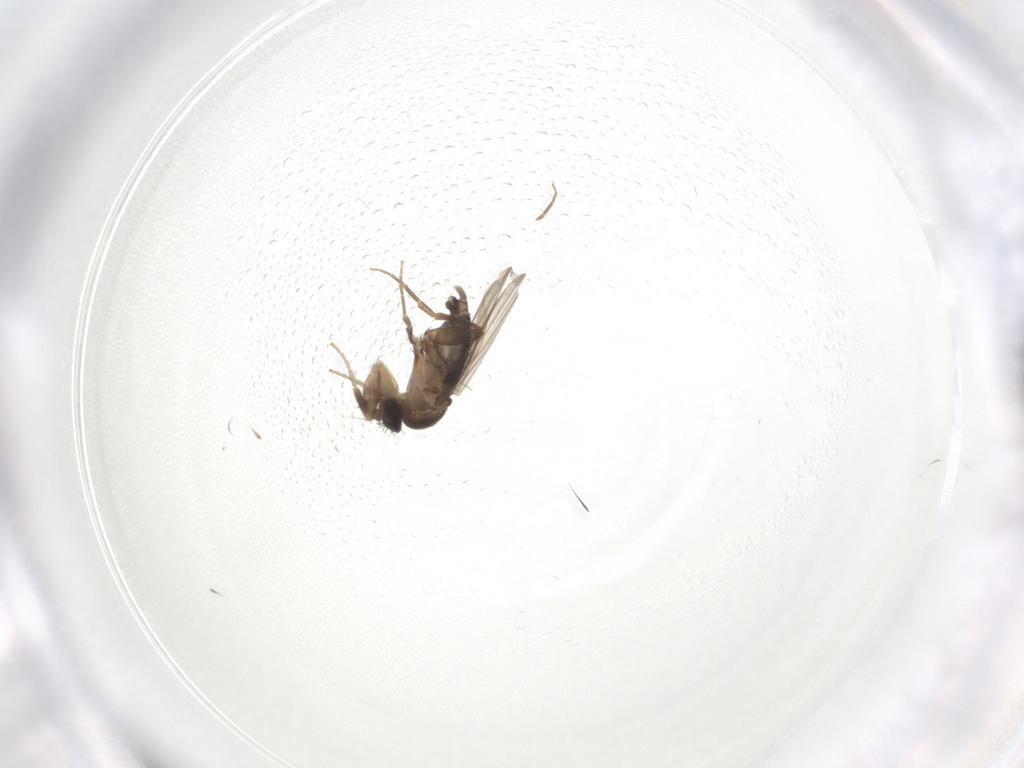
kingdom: Animalia
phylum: Arthropoda
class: Insecta
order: Diptera
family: Phoridae
